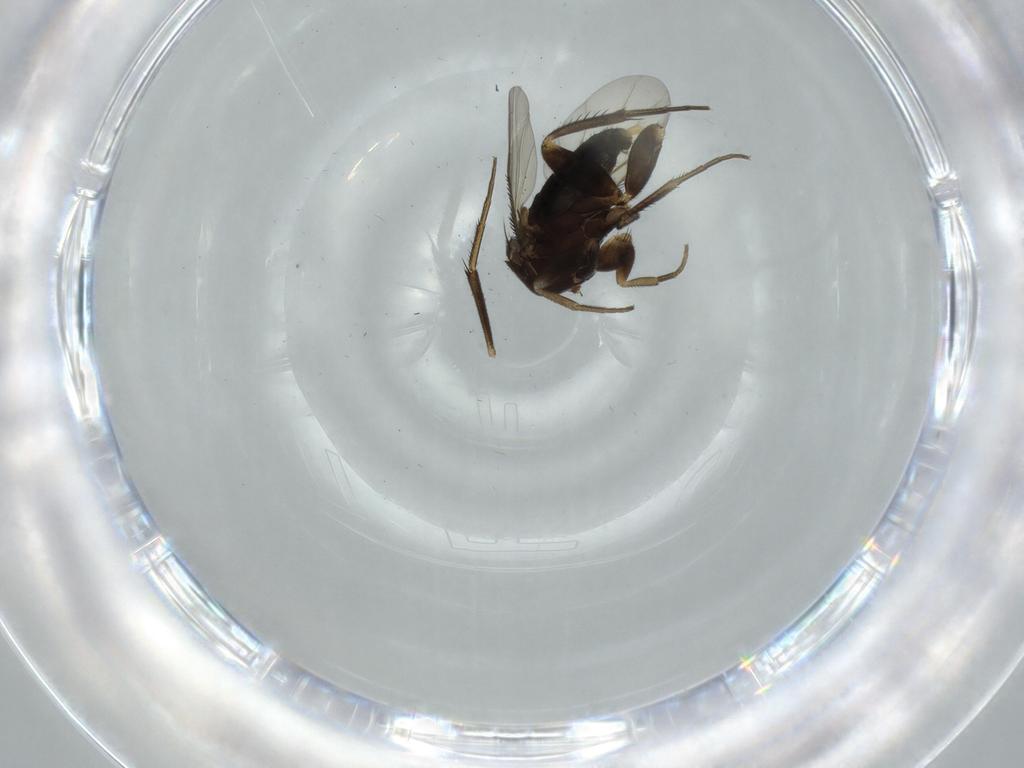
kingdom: Animalia
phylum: Arthropoda
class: Insecta
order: Diptera
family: Phoridae
